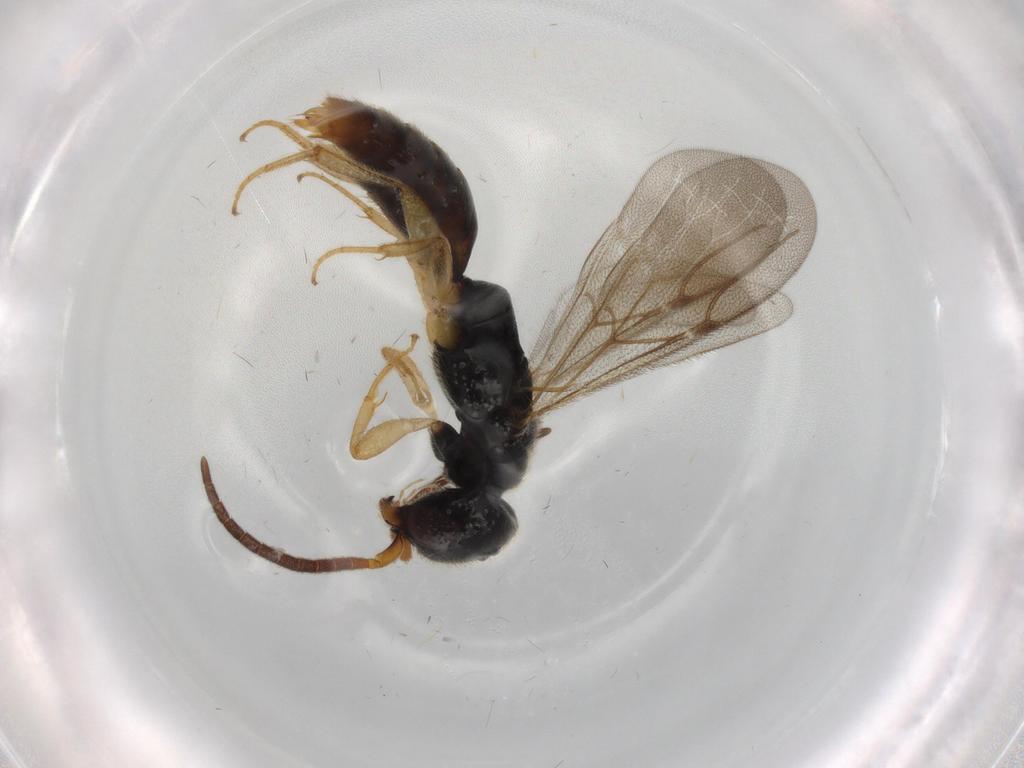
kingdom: Animalia
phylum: Arthropoda
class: Insecta
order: Hymenoptera
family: Bethylidae
